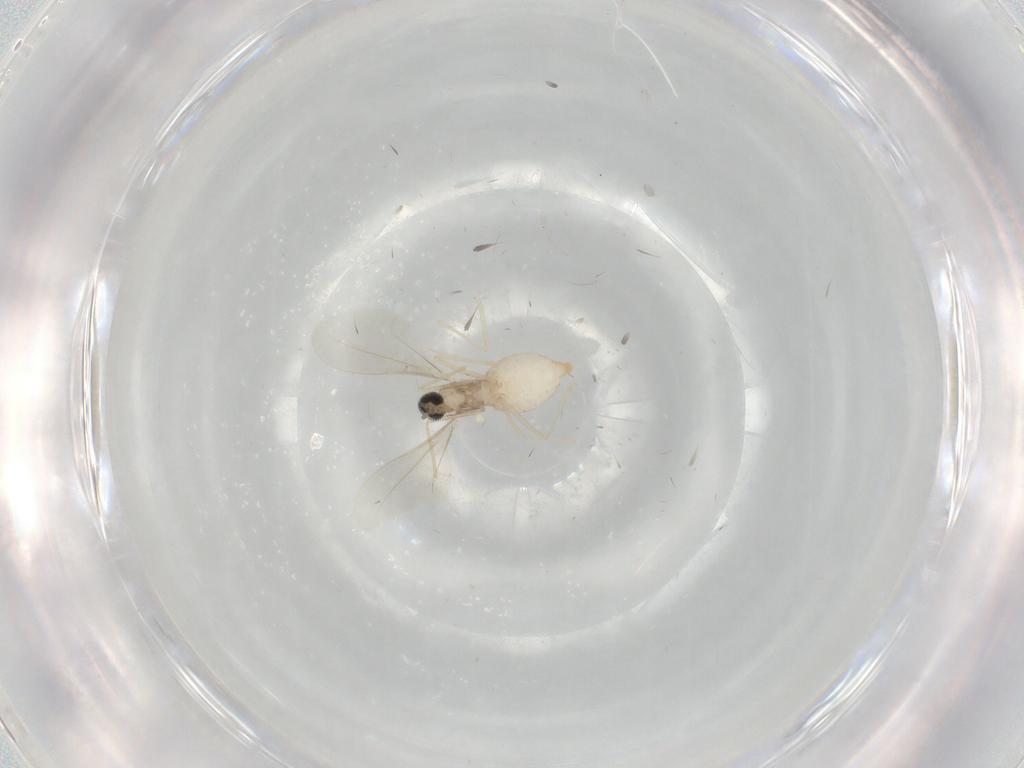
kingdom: Animalia
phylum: Arthropoda
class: Insecta
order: Diptera
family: Cecidomyiidae
